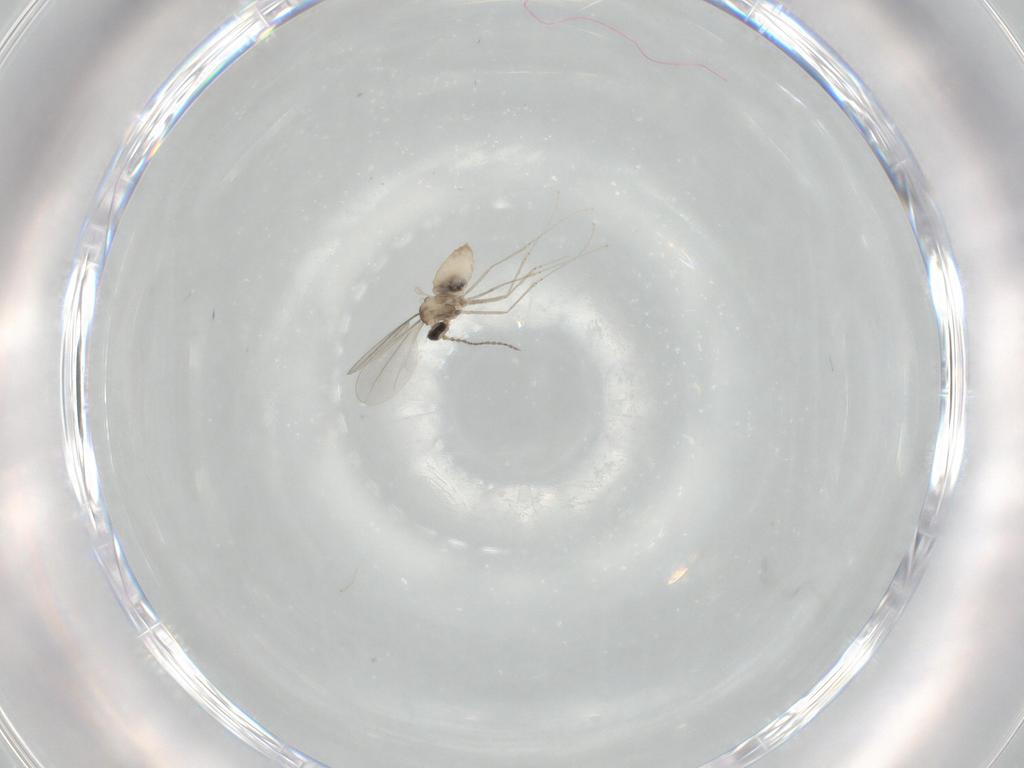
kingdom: Animalia
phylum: Arthropoda
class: Insecta
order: Diptera
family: Cecidomyiidae
